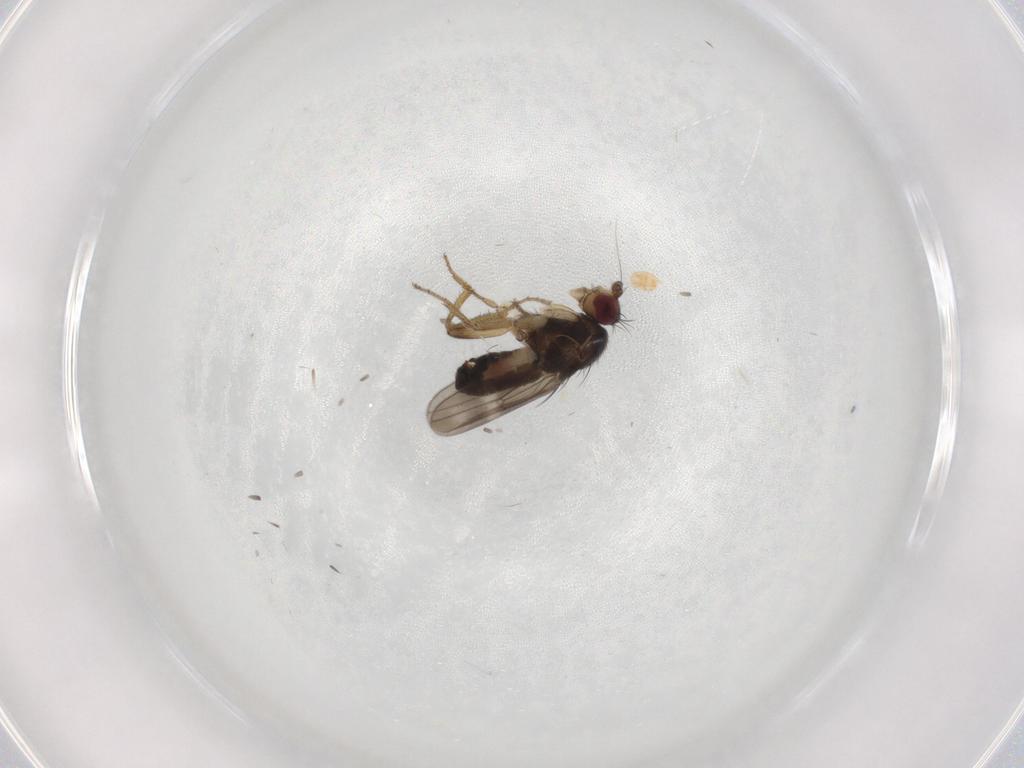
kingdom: Animalia
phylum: Arthropoda
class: Insecta
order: Diptera
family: Sphaeroceridae
